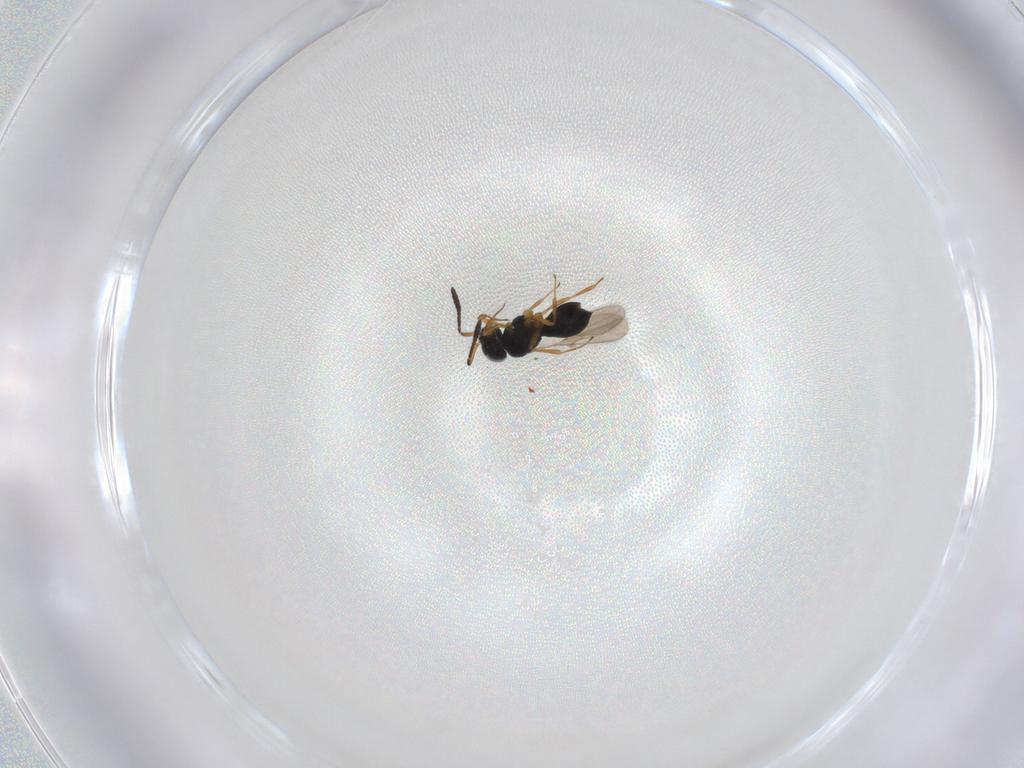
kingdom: Animalia
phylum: Arthropoda
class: Insecta
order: Hymenoptera
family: Scelionidae
